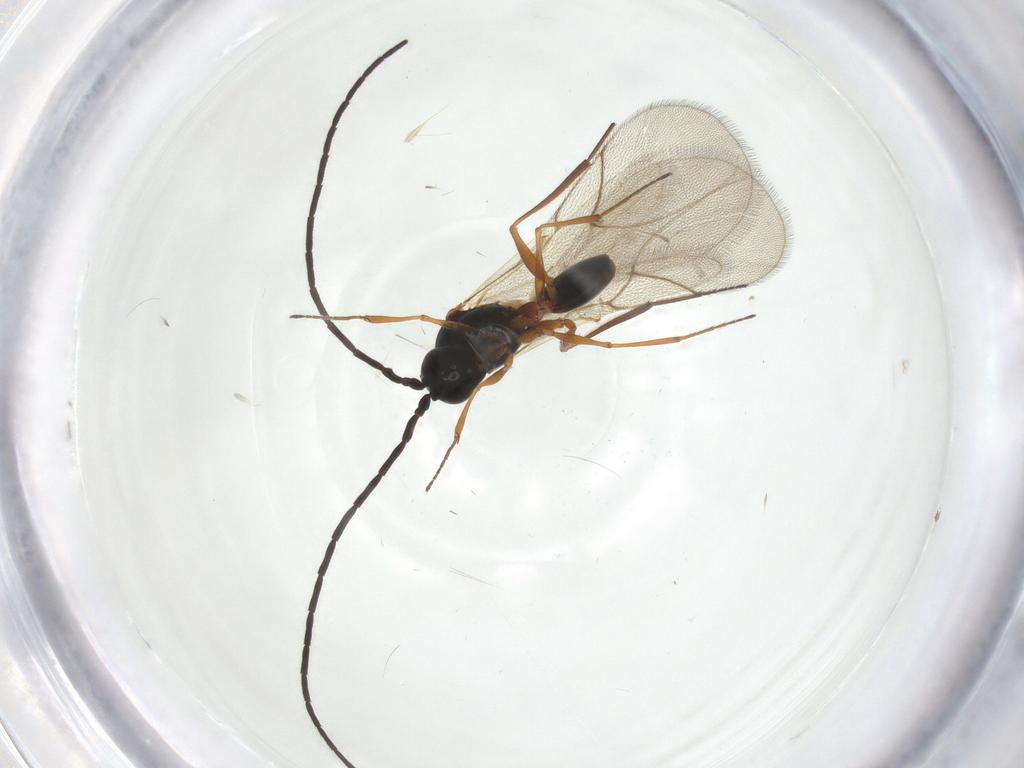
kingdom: Animalia
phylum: Arthropoda
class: Insecta
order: Hymenoptera
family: Figitidae
